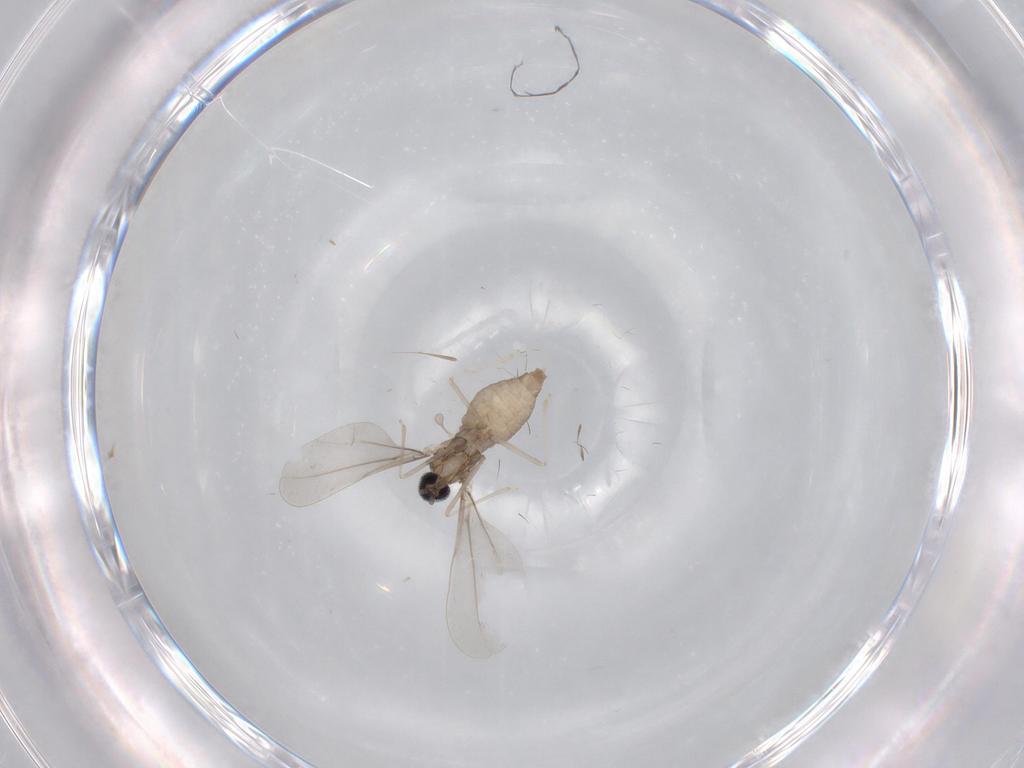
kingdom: Animalia
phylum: Arthropoda
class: Insecta
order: Diptera
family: Cecidomyiidae
